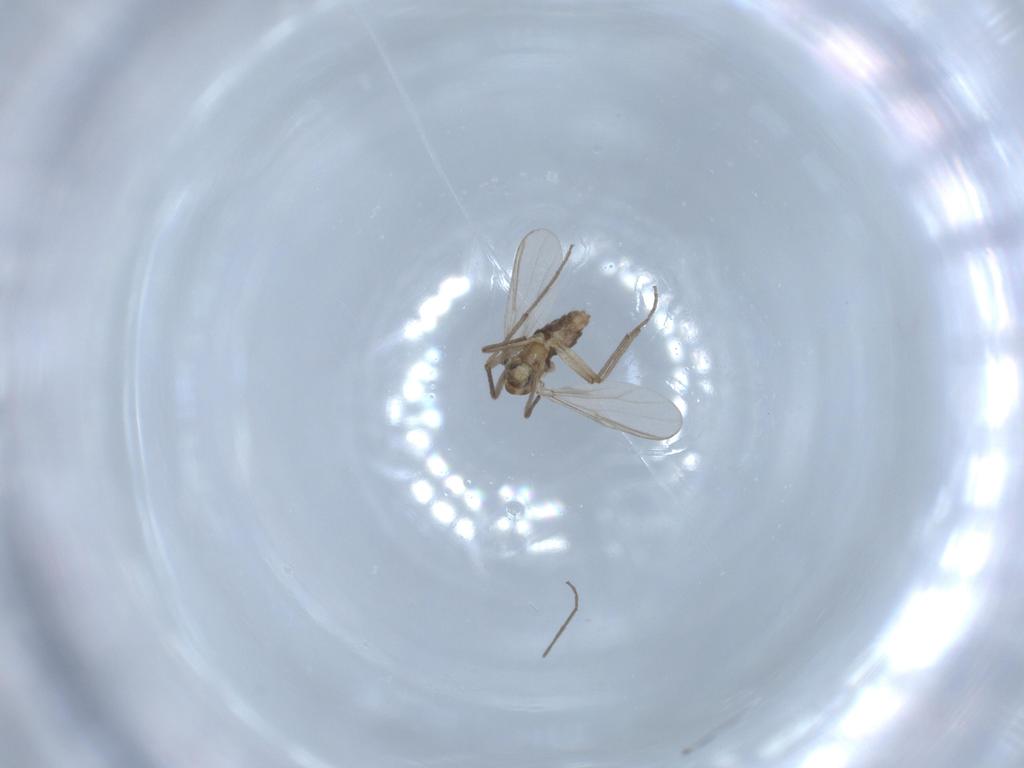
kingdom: Animalia
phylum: Arthropoda
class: Insecta
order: Diptera
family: Chironomidae
